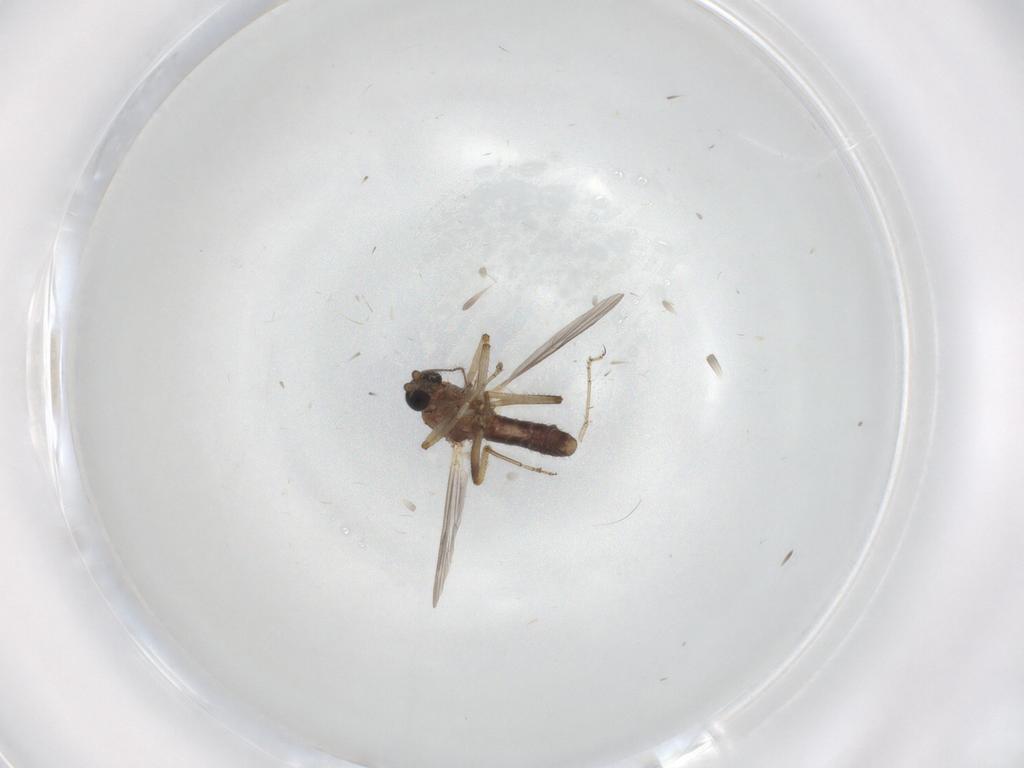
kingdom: Animalia
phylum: Arthropoda
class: Insecta
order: Diptera
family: Ceratopogonidae
